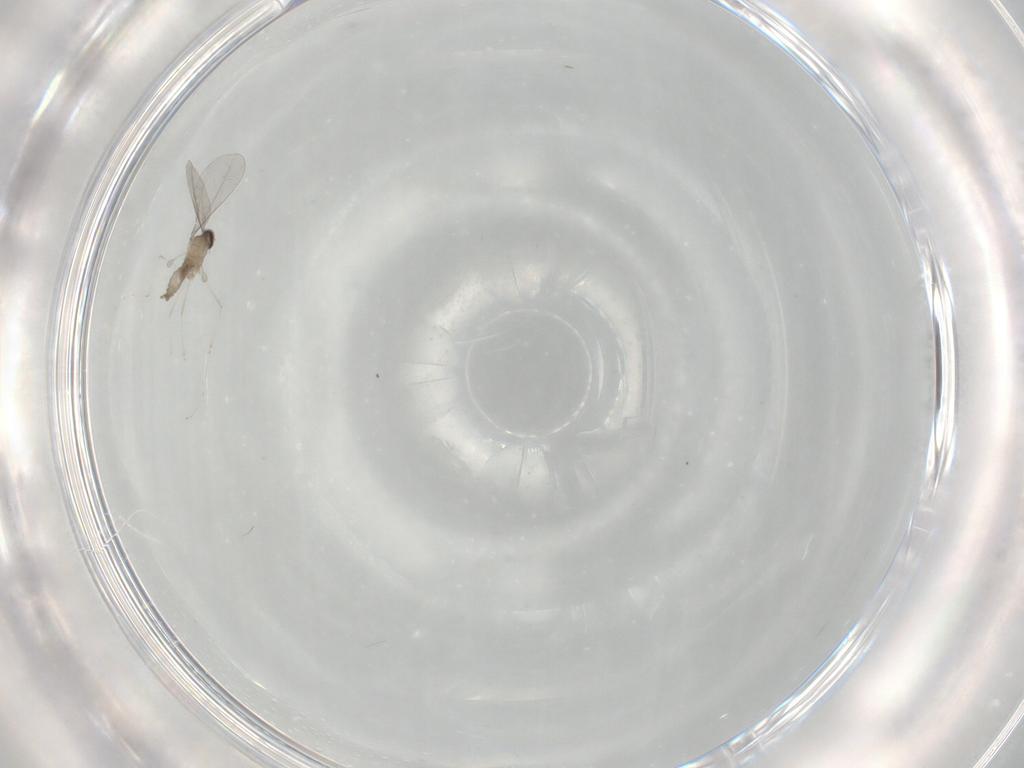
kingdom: Animalia
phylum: Arthropoda
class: Insecta
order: Diptera
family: Cecidomyiidae
